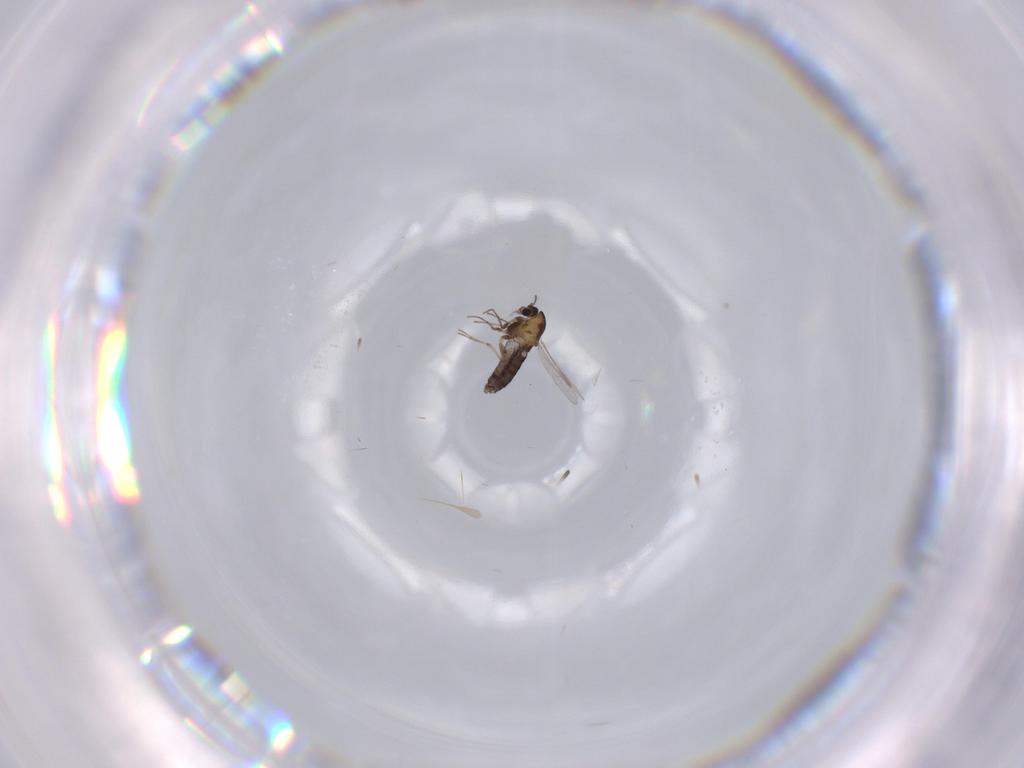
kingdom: Animalia
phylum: Arthropoda
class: Insecta
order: Diptera
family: Chironomidae
